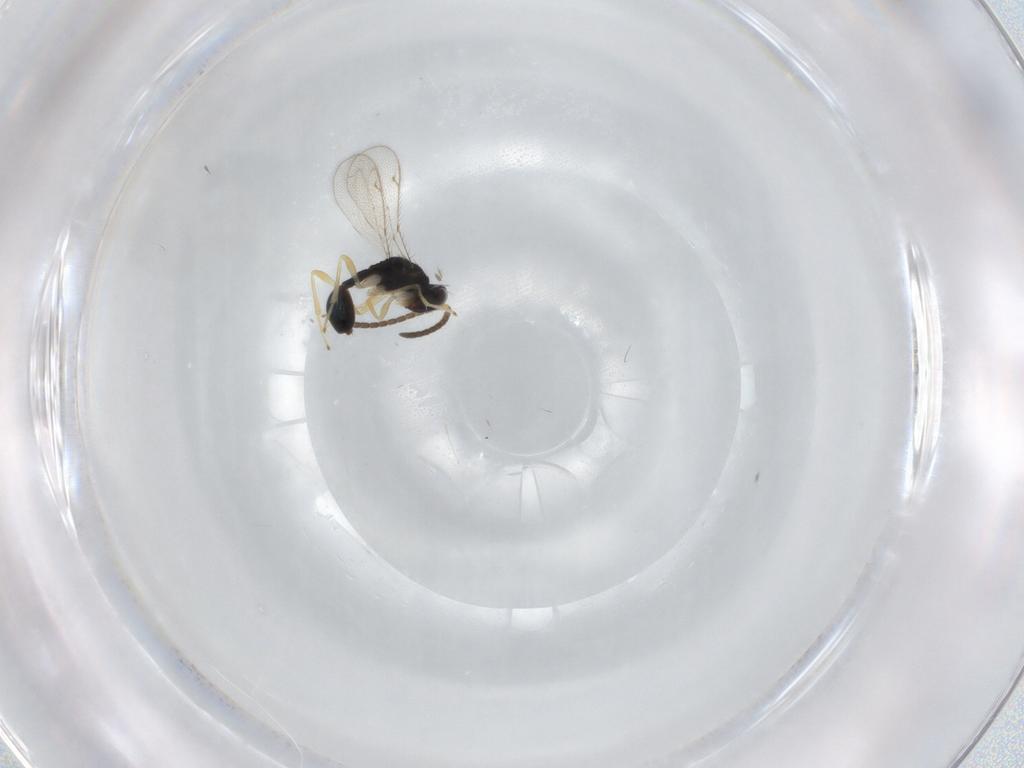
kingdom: Animalia
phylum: Arthropoda
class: Insecta
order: Hymenoptera
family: Diparidae
